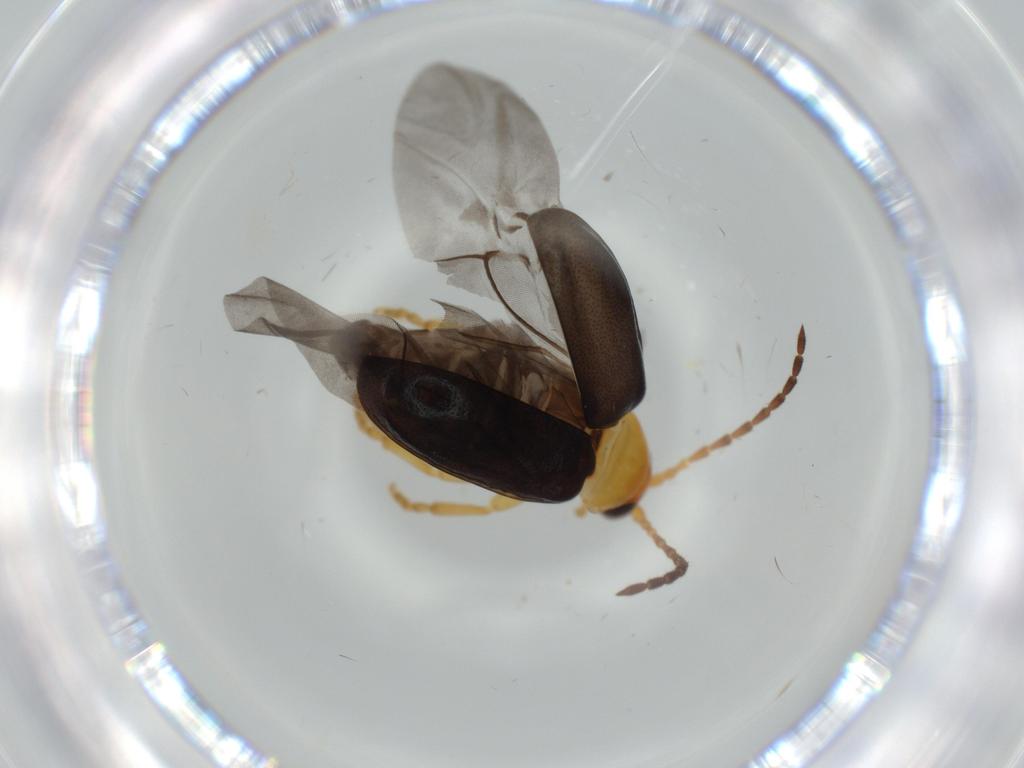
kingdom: Animalia
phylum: Arthropoda
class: Insecta
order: Coleoptera
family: Chrysomelidae
